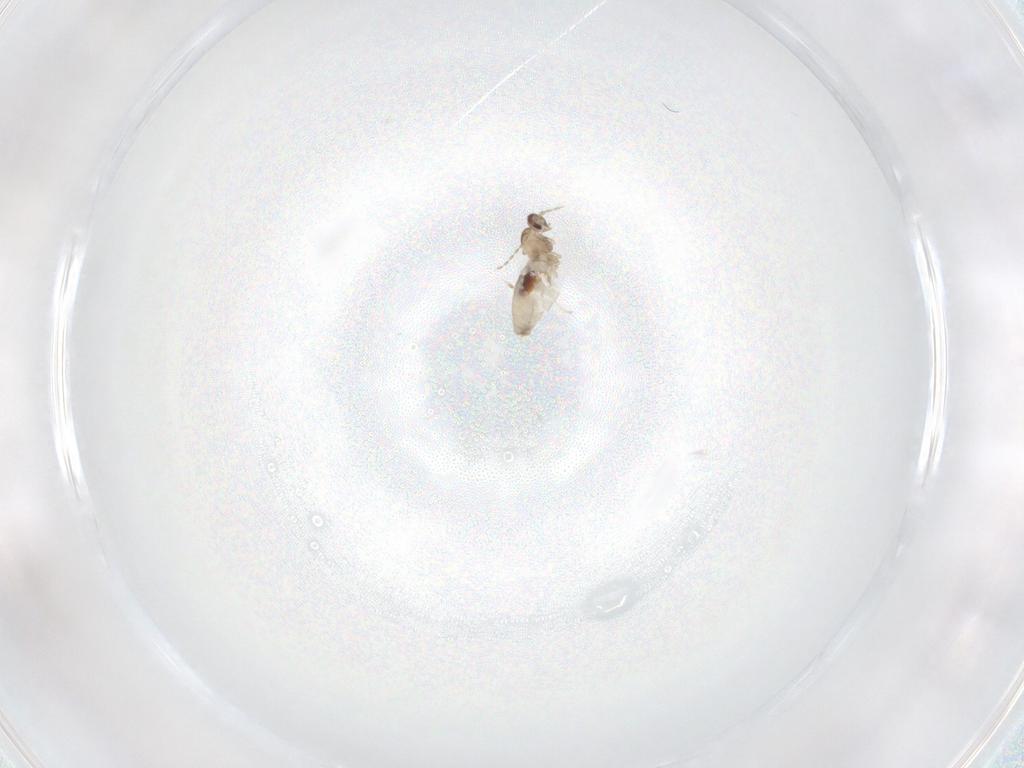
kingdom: Animalia
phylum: Arthropoda
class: Insecta
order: Diptera
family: Cecidomyiidae
